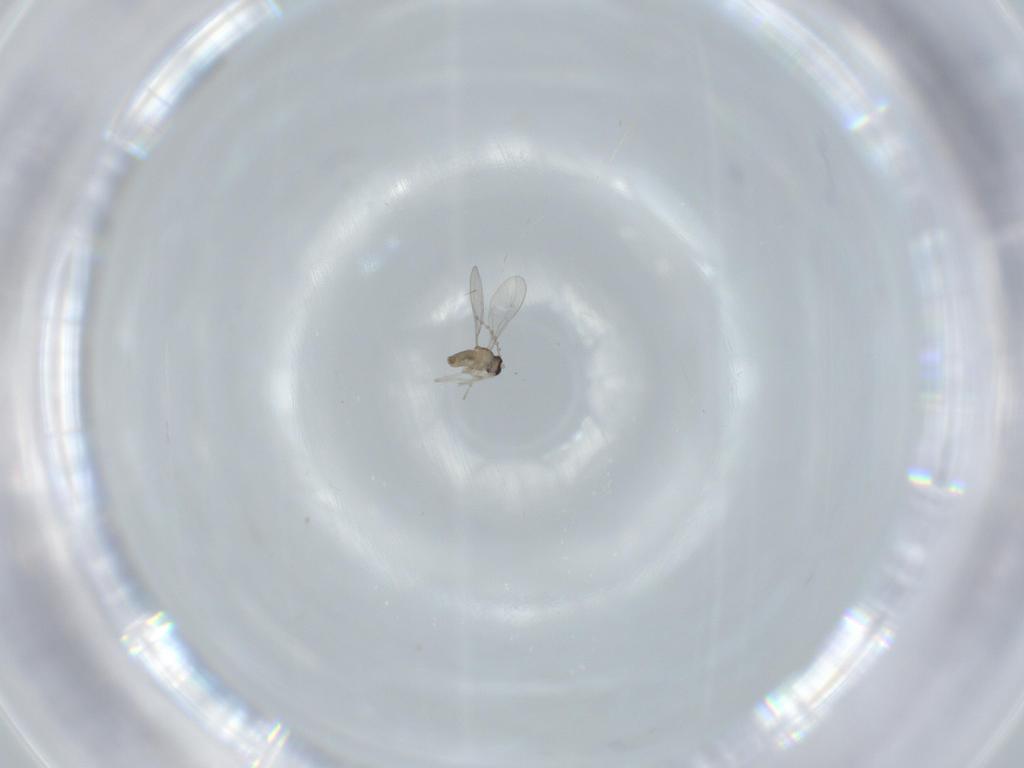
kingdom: Animalia
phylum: Arthropoda
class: Insecta
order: Diptera
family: Cecidomyiidae
